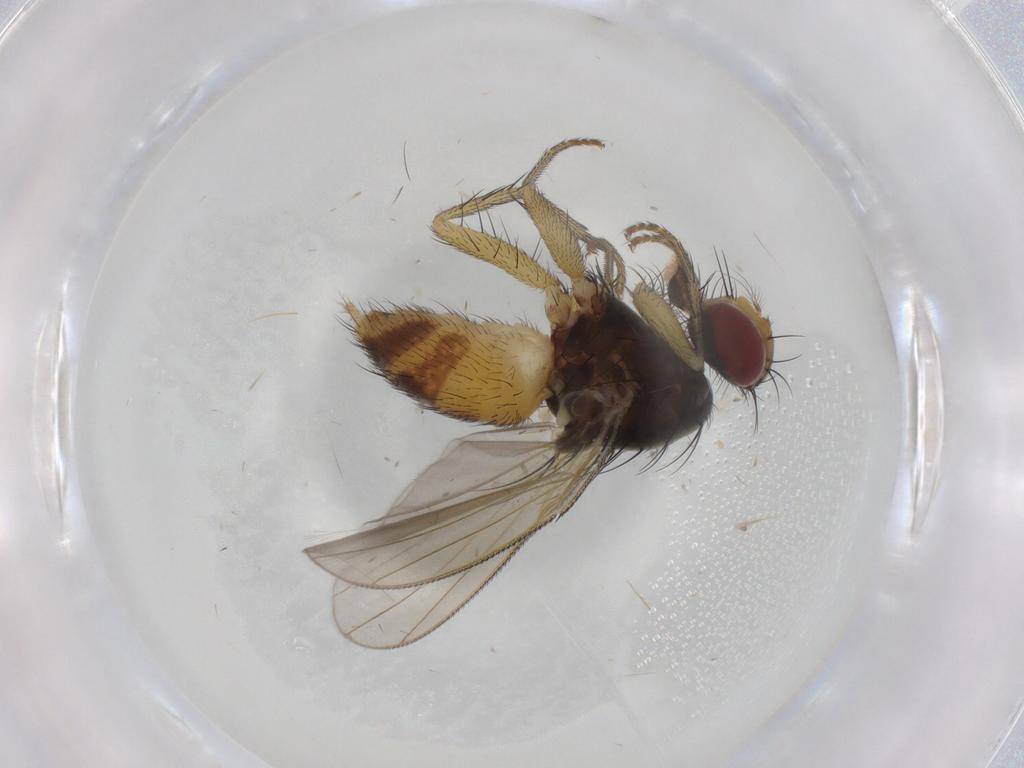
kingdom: Animalia
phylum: Arthropoda
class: Insecta
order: Diptera
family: Muscidae
